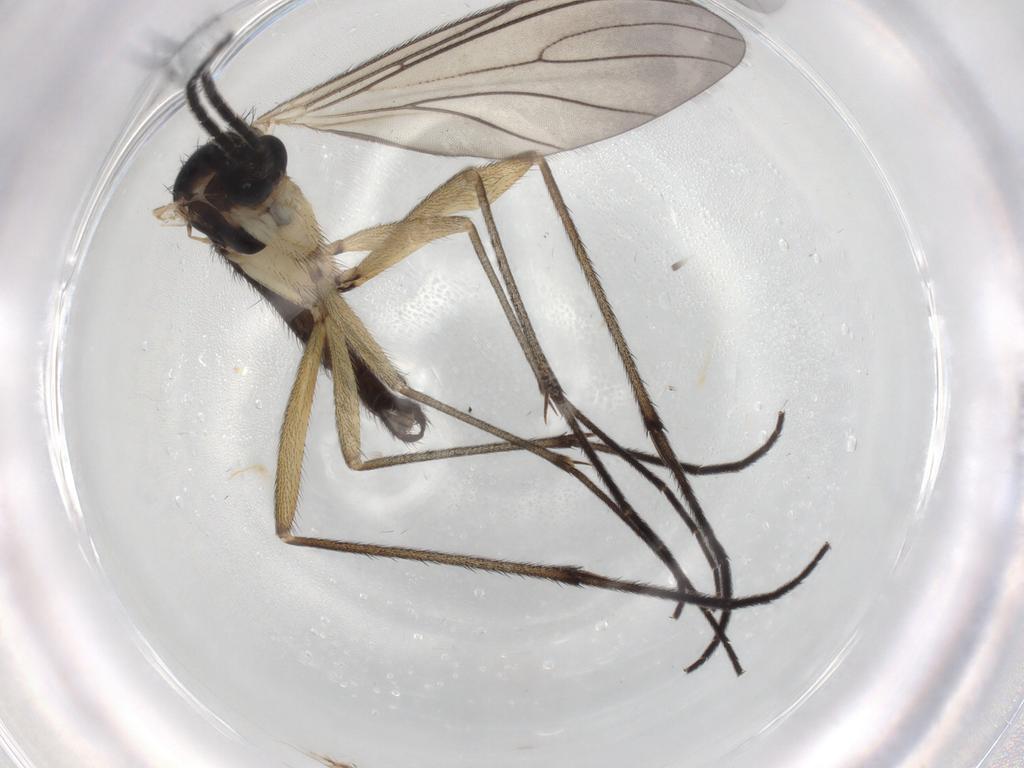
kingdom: Animalia
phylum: Arthropoda
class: Insecta
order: Diptera
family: Sciaridae
